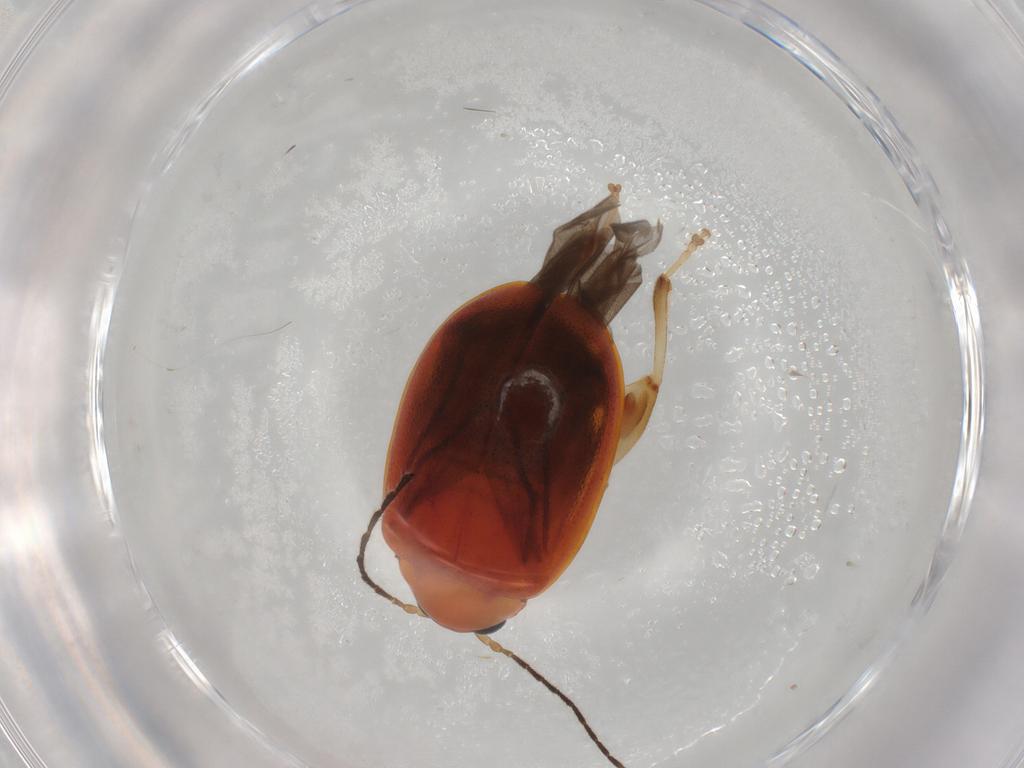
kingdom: Animalia
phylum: Arthropoda
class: Insecta
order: Coleoptera
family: Chrysomelidae
